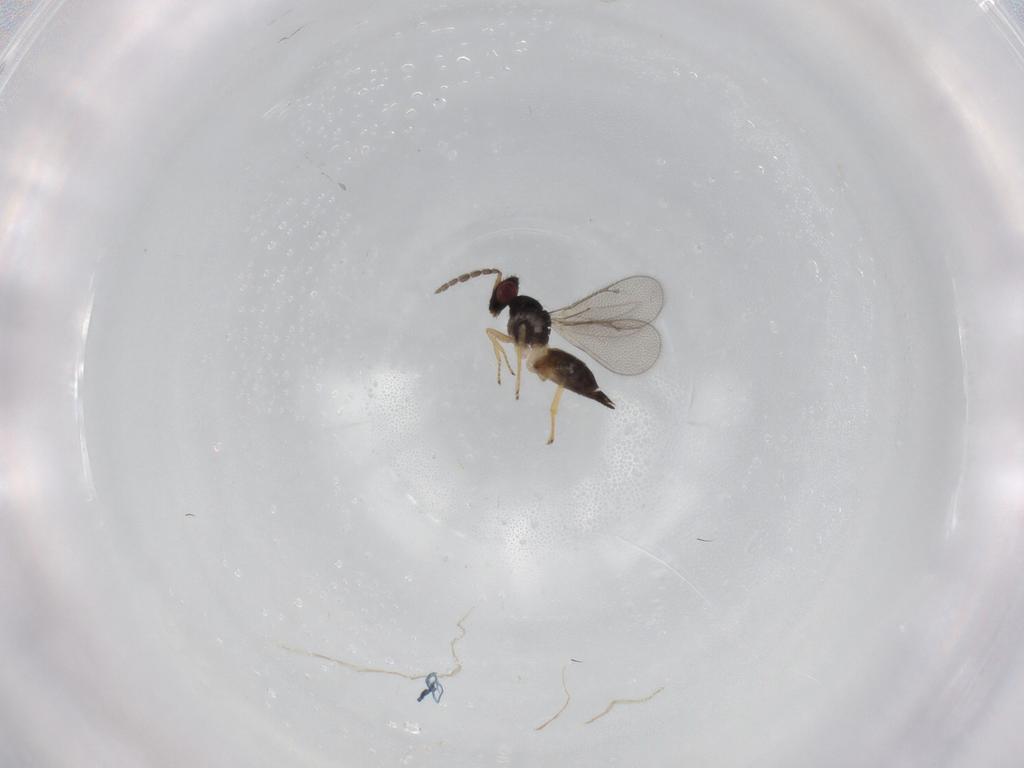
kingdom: Animalia
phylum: Arthropoda
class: Insecta
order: Hymenoptera
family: Eulophidae
